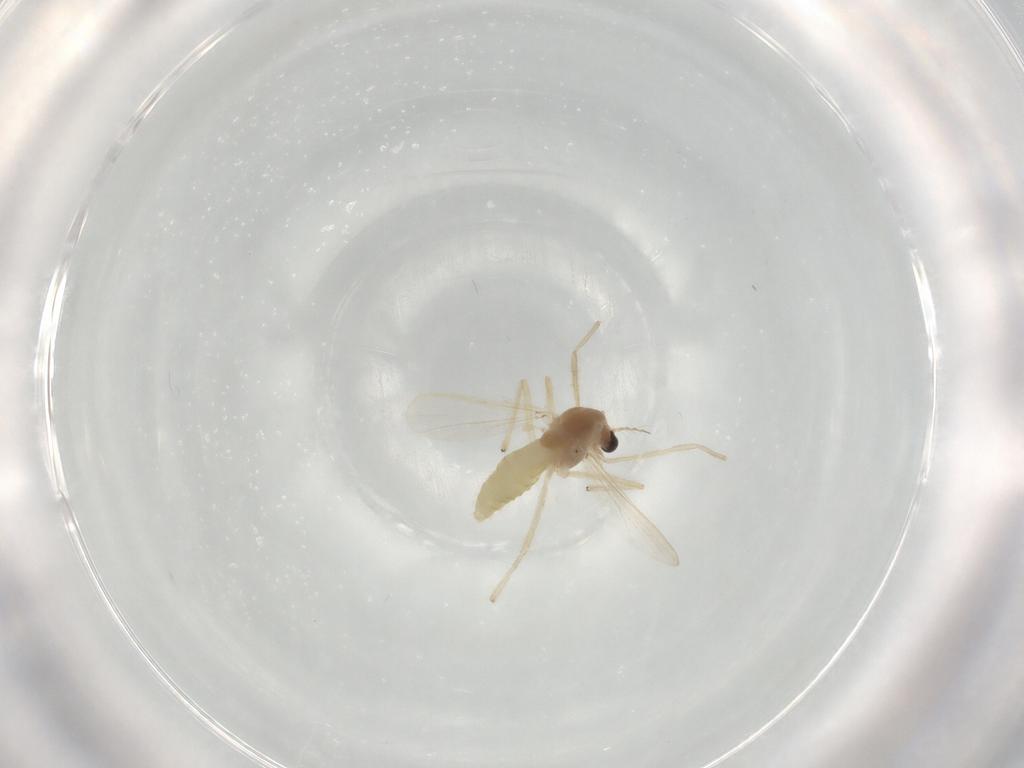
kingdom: Animalia
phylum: Arthropoda
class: Insecta
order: Diptera
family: Chironomidae
